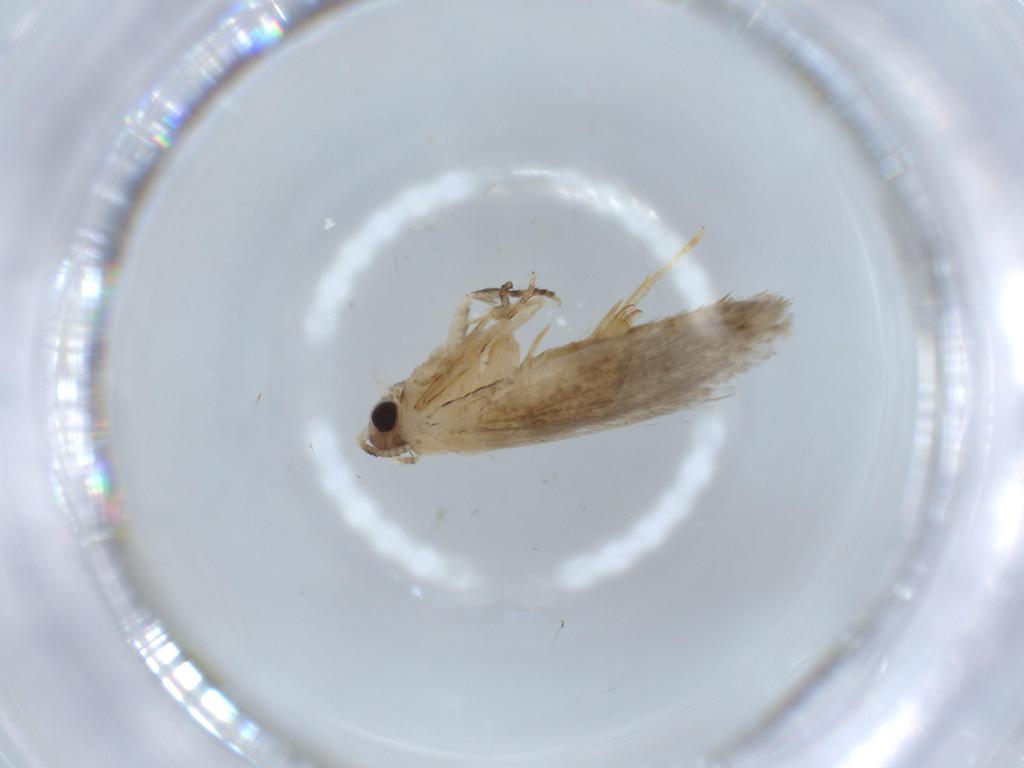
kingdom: Animalia
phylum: Arthropoda
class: Insecta
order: Lepidoptera
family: Tineidae
